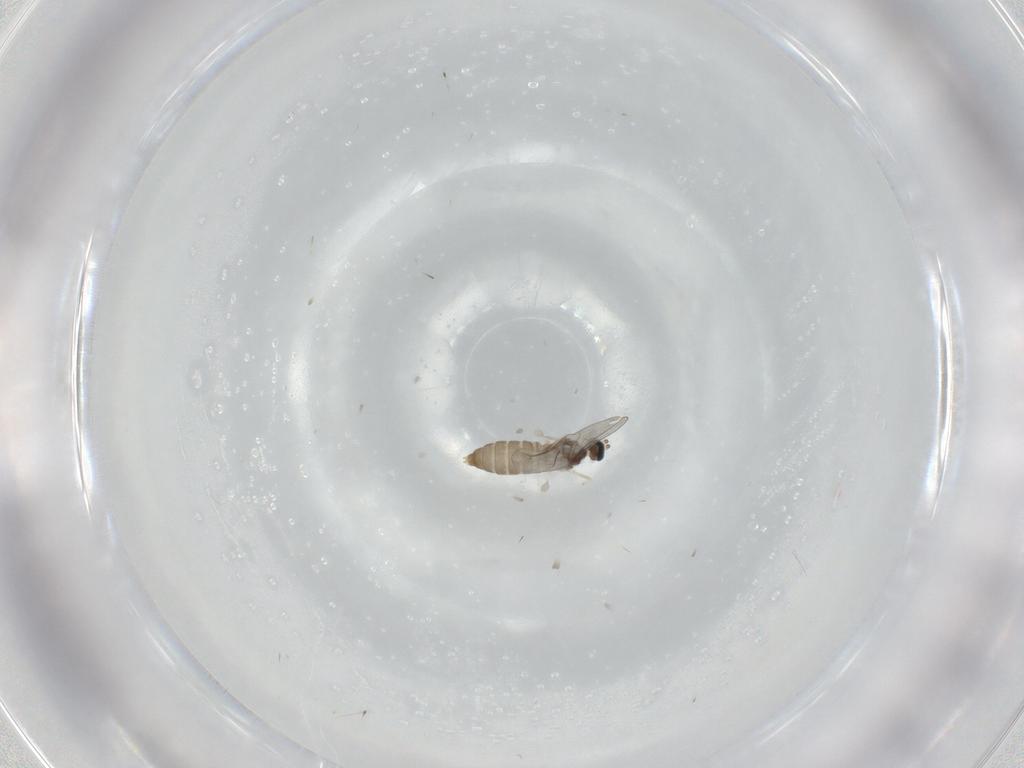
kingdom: Animalia
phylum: Arthropoda
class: Insecta
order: Diptera
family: Cecidomyiidae
